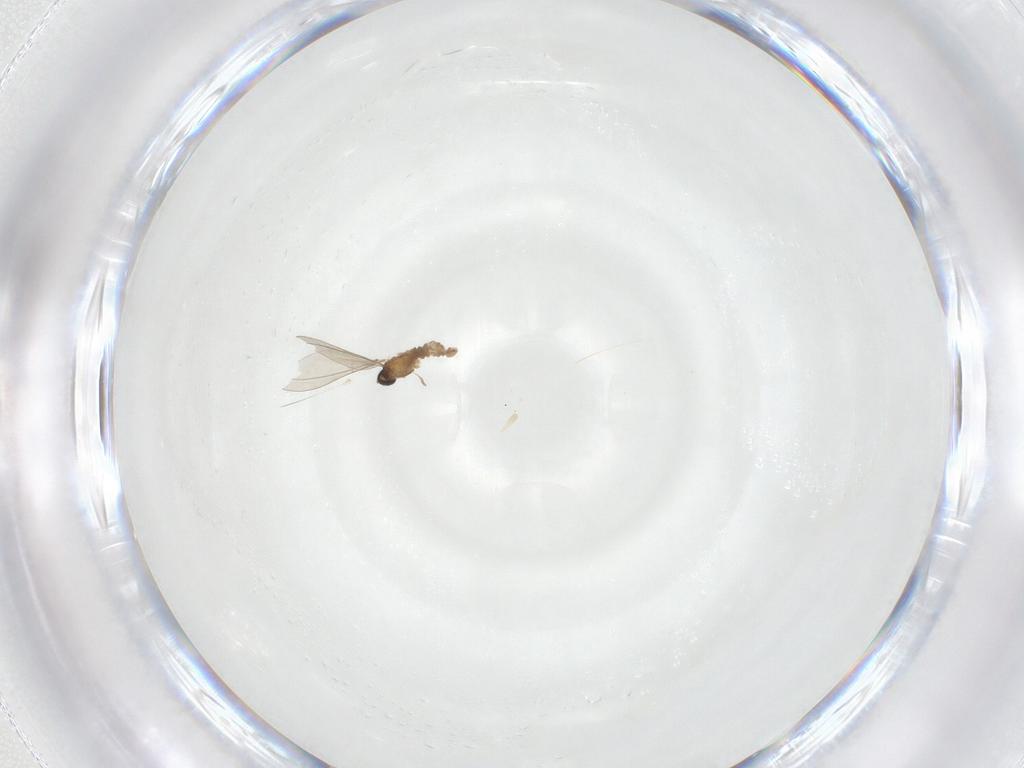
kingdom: Animalia
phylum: Arthropoda
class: Insecta
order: Diptera
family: Cecidomyiidae
